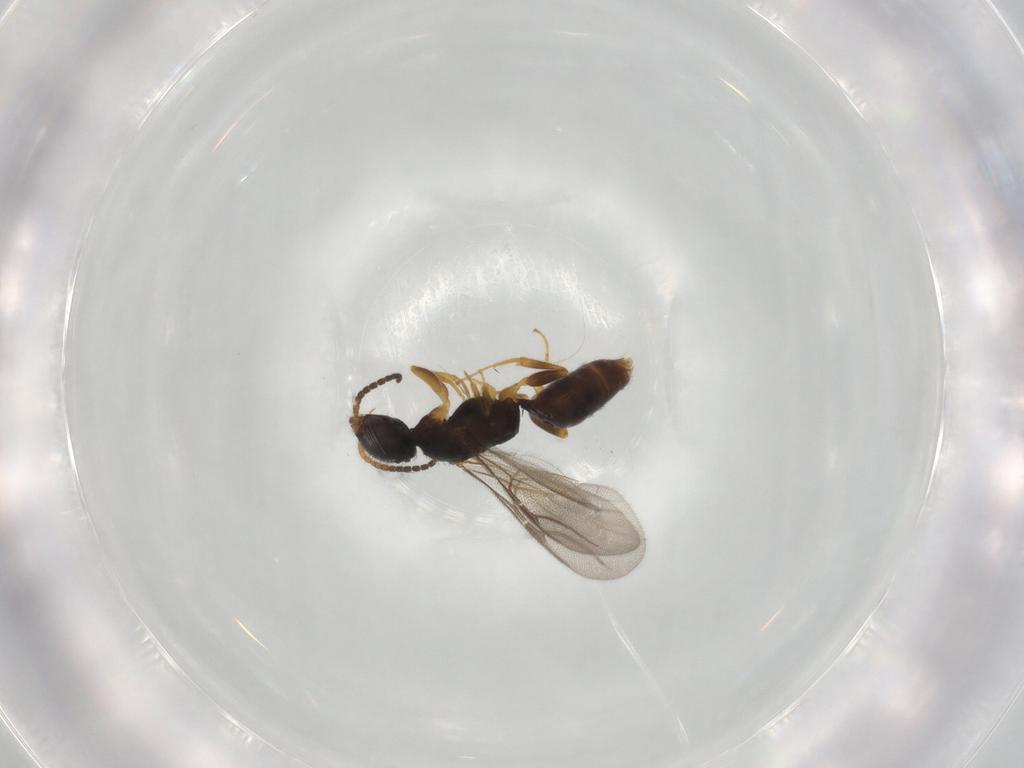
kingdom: Animalia
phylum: Arthropoda
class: Insecta
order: Hymenoptera
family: Bethylidae
